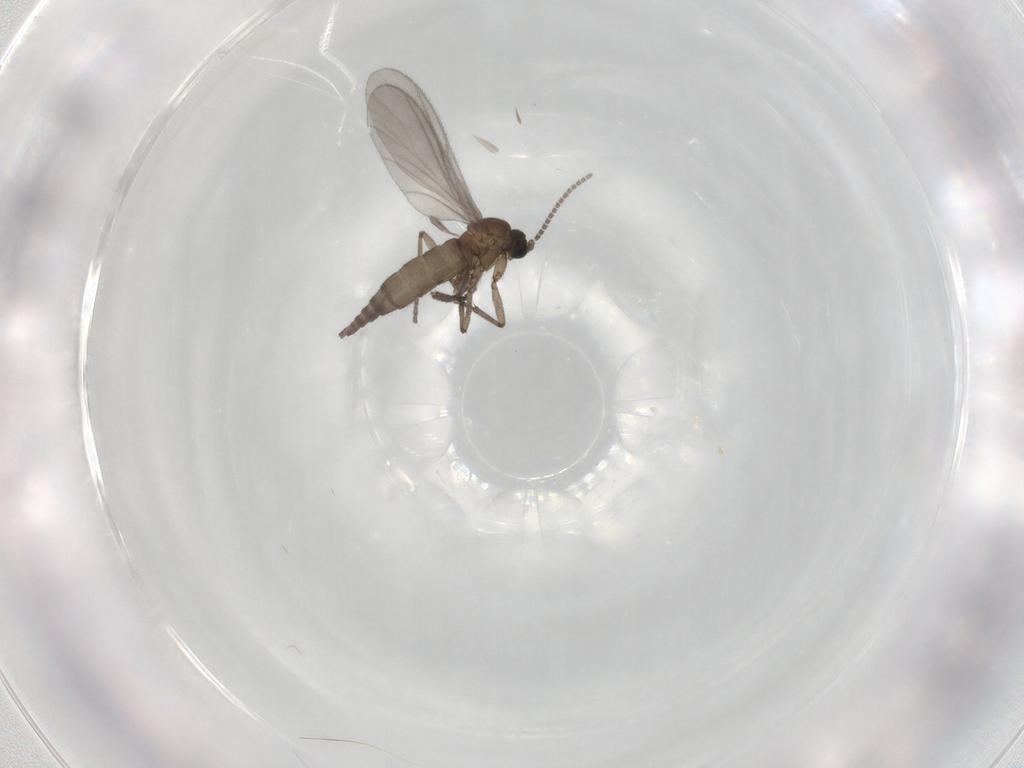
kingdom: Animalia
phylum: Arthropoda
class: Insecta
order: Diptera
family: Sciaridae
